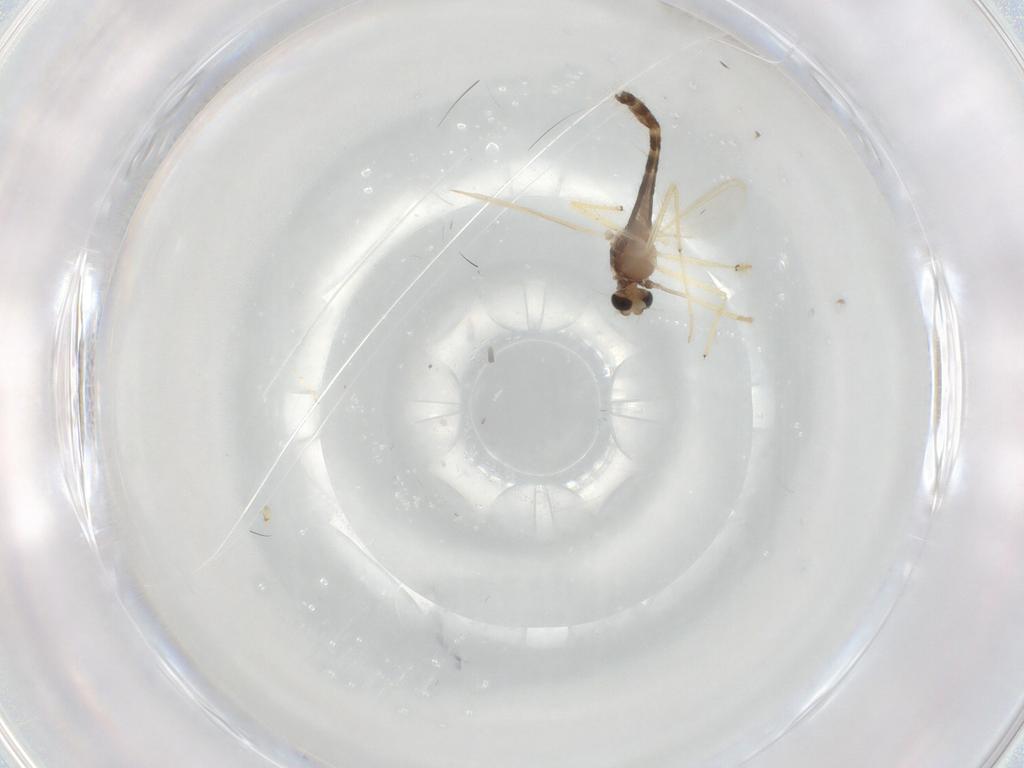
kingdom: Animalia
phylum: Arthropoda
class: Insecta
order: Diptera
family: Chironomidae
